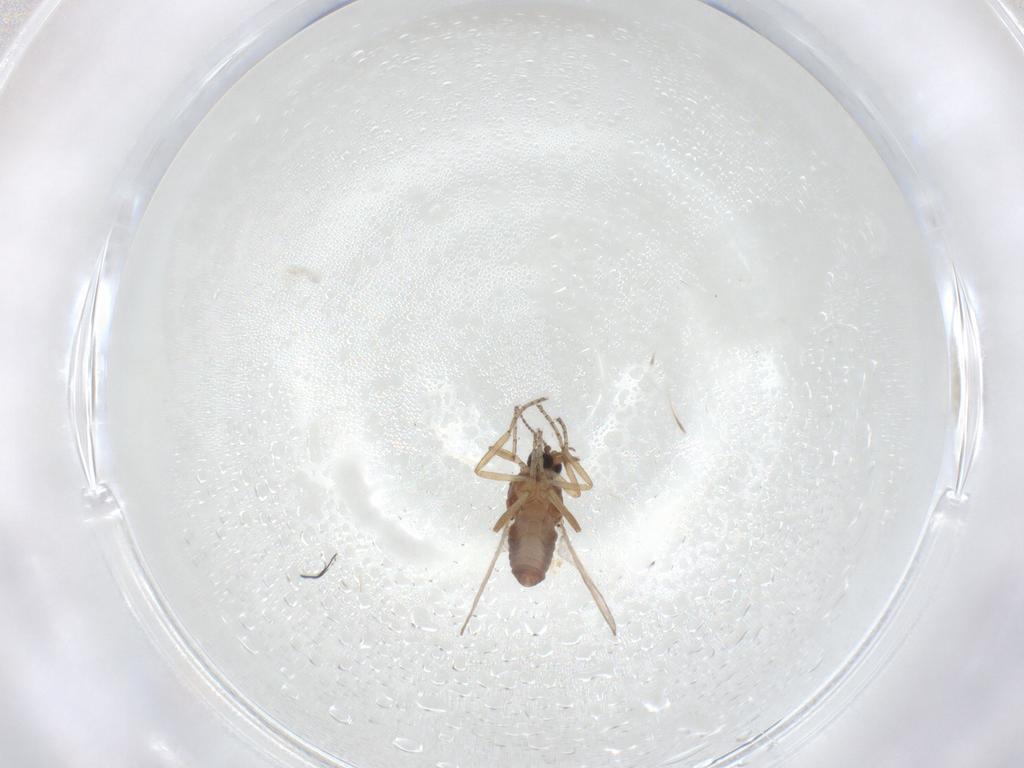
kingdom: Animalia
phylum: Arthropoda
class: Insecta
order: Diptera
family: Ceratopogonidae
